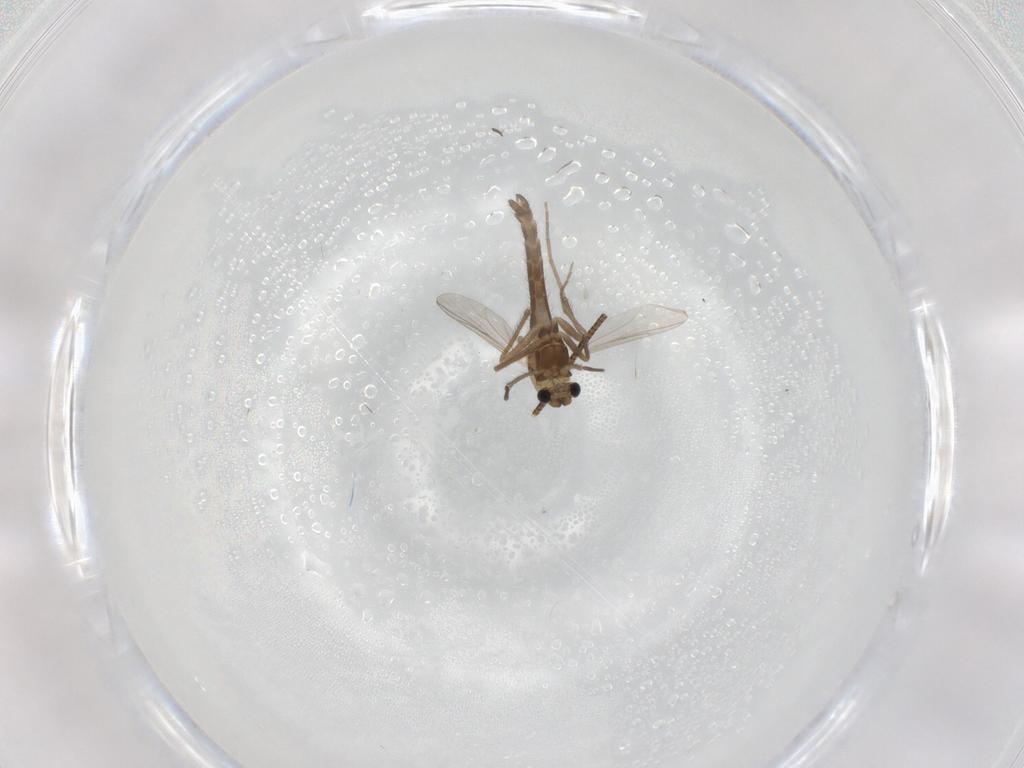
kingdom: Animalia
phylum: Arthropoda
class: Insecta
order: Diptera
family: Chironomidae
